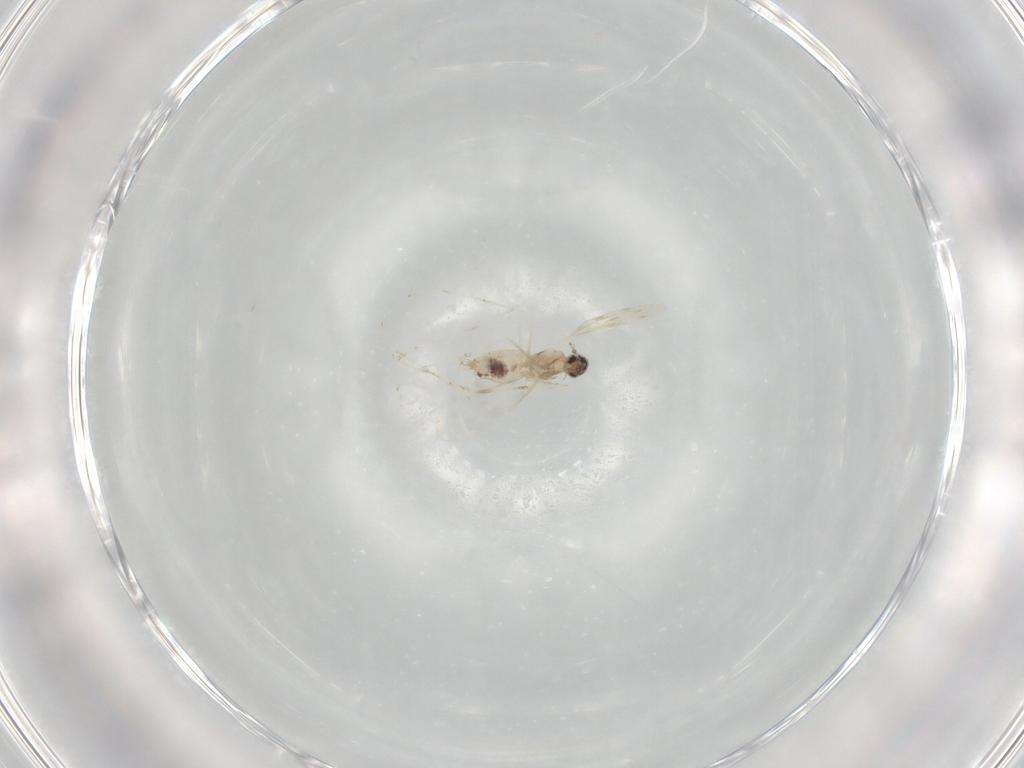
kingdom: Animalia
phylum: Arthropoda
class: Insecta
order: Diptera
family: Cecidomyiidae
